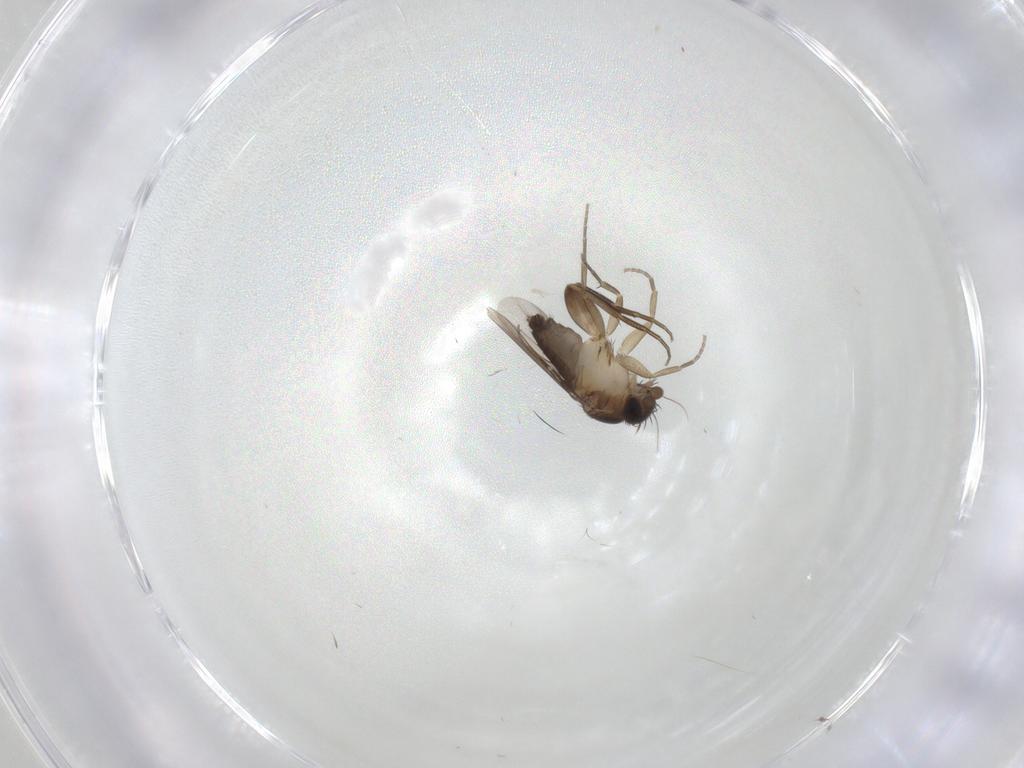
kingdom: Animalia
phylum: Arthropoda
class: Insecta
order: Diptera
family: Phoridae
